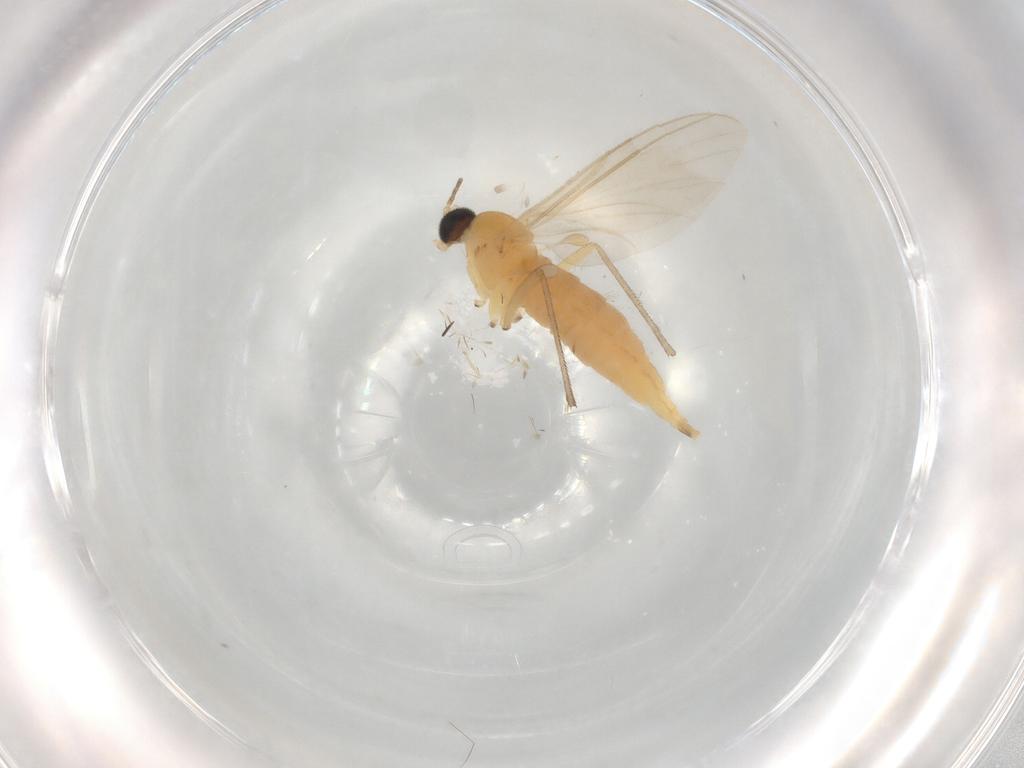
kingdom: Animalia
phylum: Arthropoda
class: Insecta
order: Diptera
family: Sciaridae
